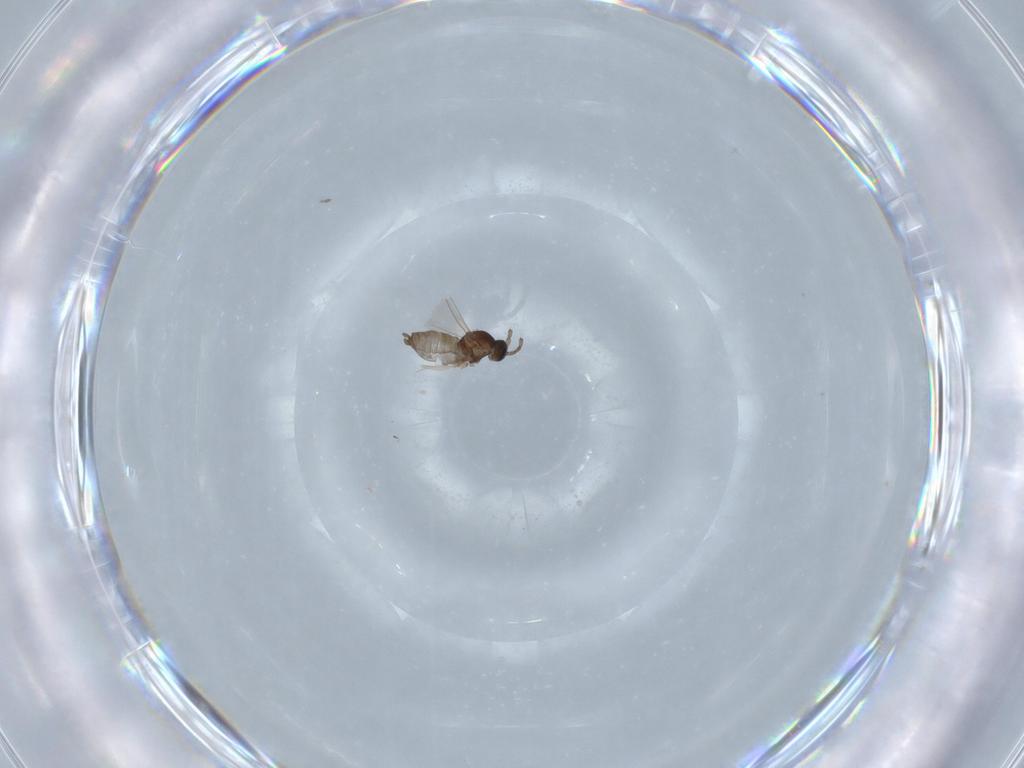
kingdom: Animalia
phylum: Arthropoda
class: Insecta
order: Diptera
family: Cecidomyiidae
